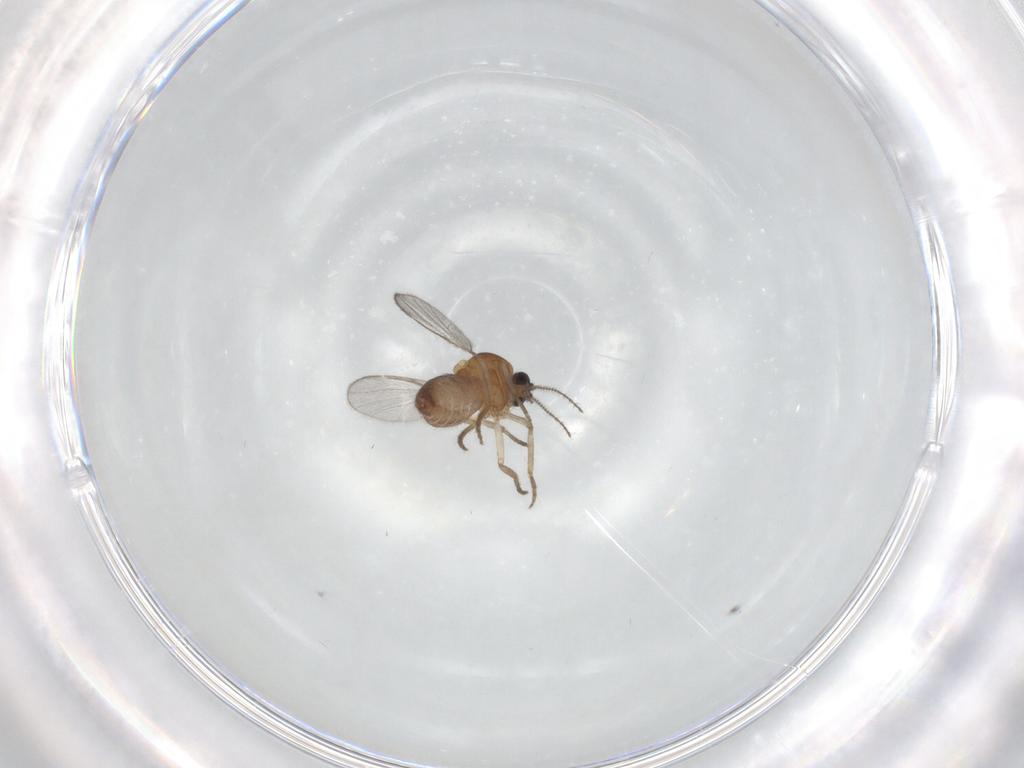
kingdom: Animalia
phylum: Arthropoda
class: Insecta
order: Diptera
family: Ceratopogonidae
